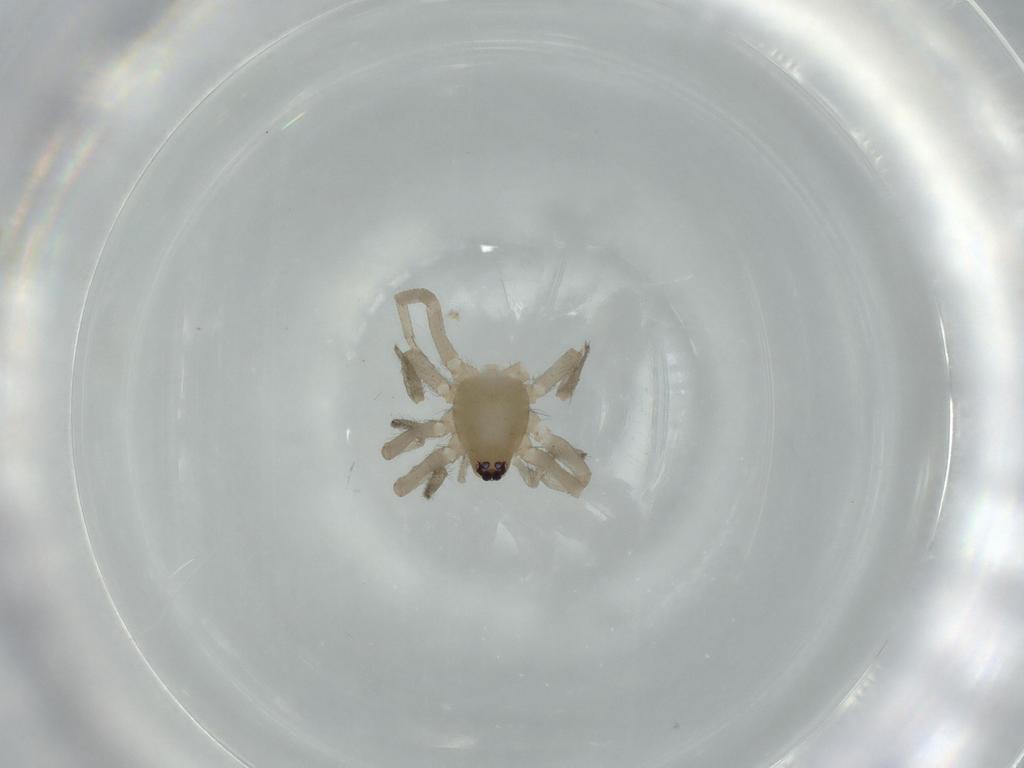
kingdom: Animalia
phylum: Arthropoda
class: Arachnida
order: Araneae
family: Gnaphosidae
